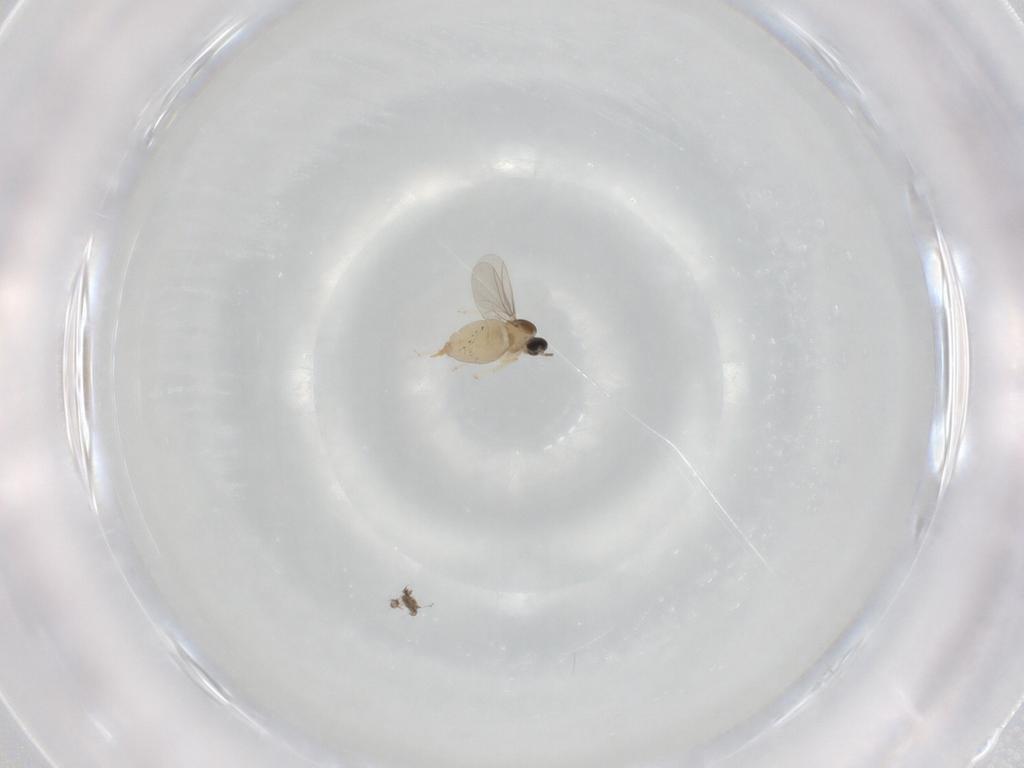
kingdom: Animalia
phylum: Arthropoda
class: Insecta
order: Diptera
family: Cecidomyiidae
